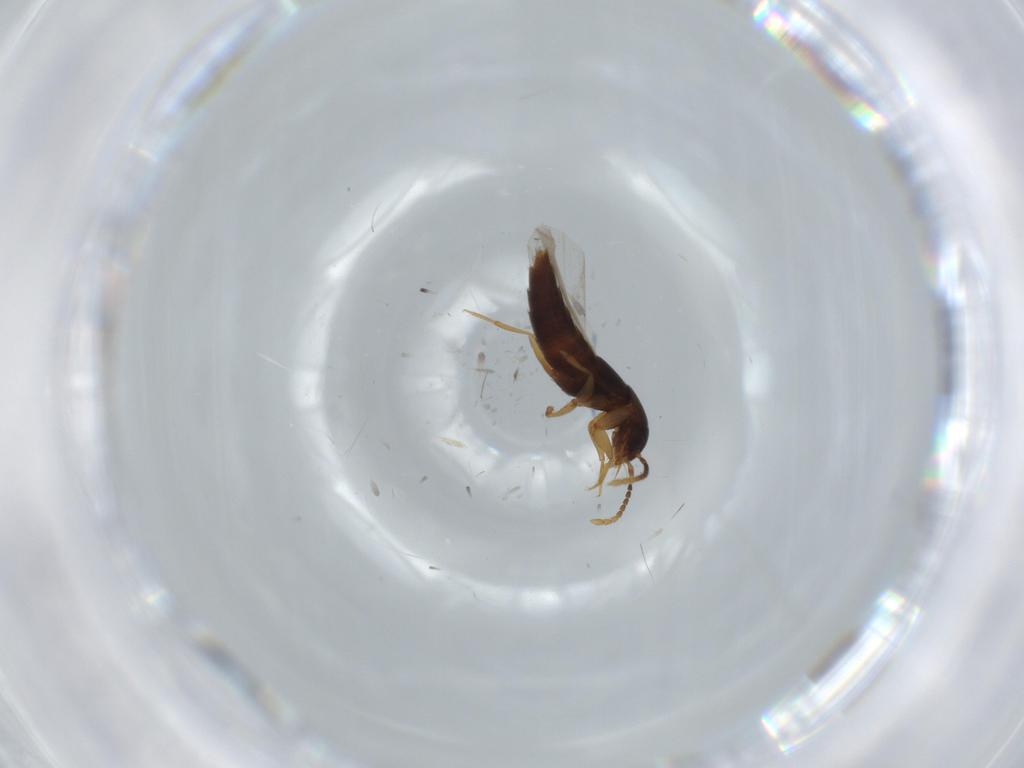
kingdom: Animalia
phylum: Arthropoda
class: Insecta
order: Coleoptera
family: Staphylinidae
